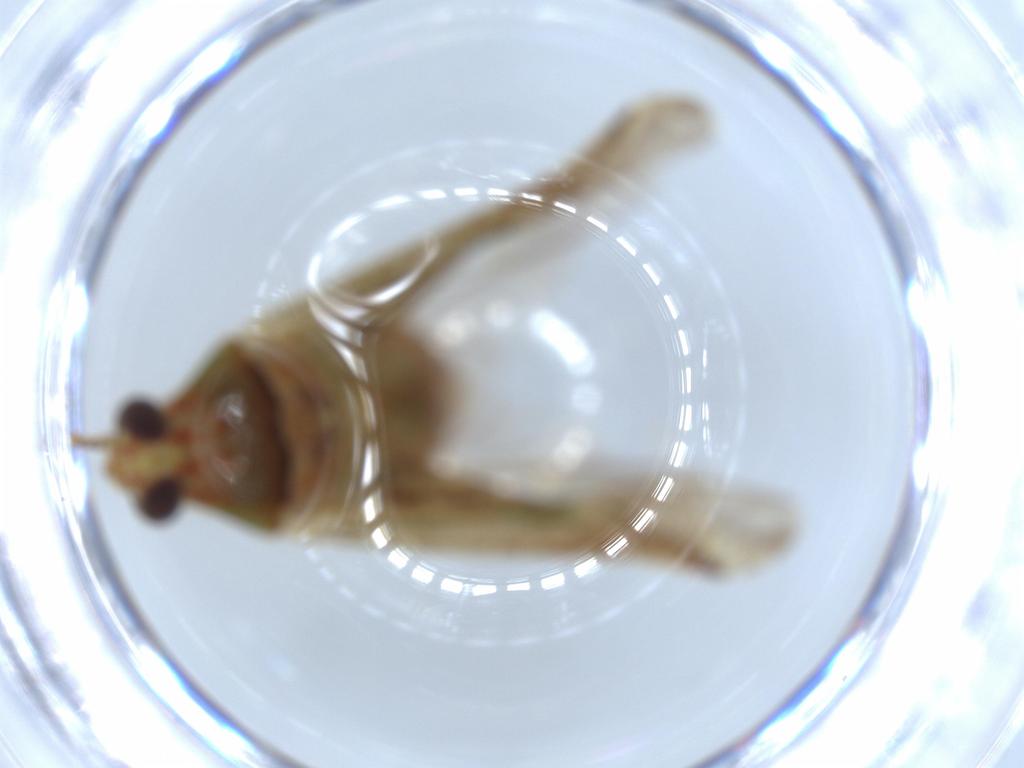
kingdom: Animalia
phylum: Arthropoda
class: Insecta
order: Hemiptera
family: Miridae
